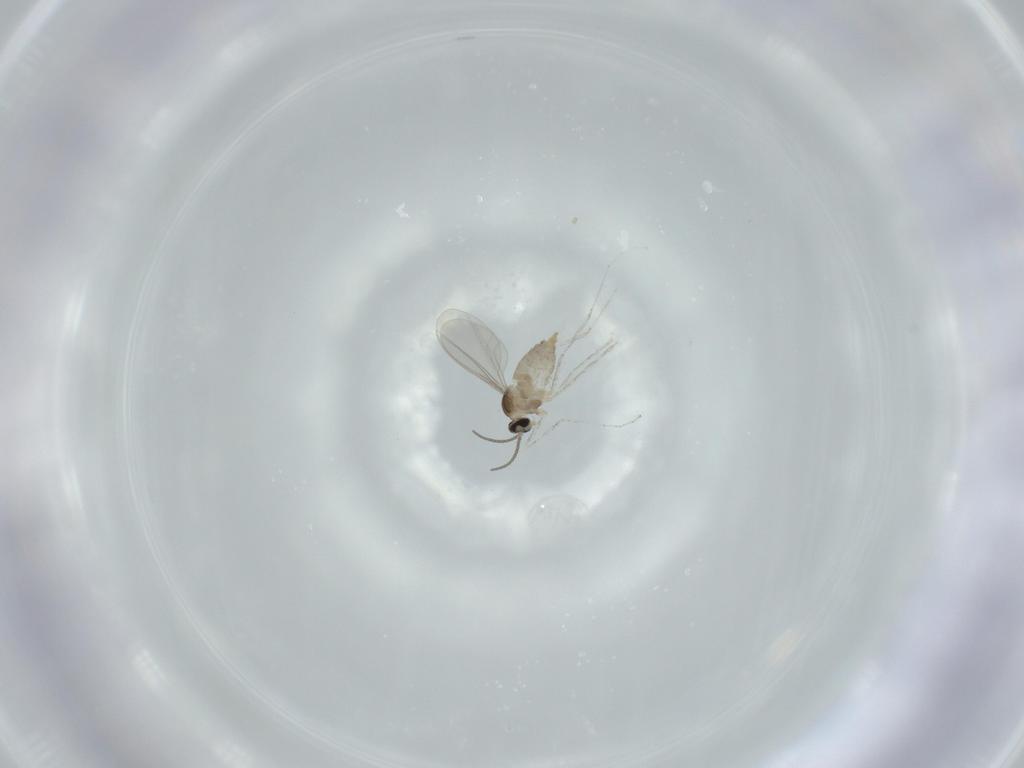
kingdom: Animalia
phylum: Arthropoda
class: Insecta
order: Diptera
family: Cecidomyiidae
